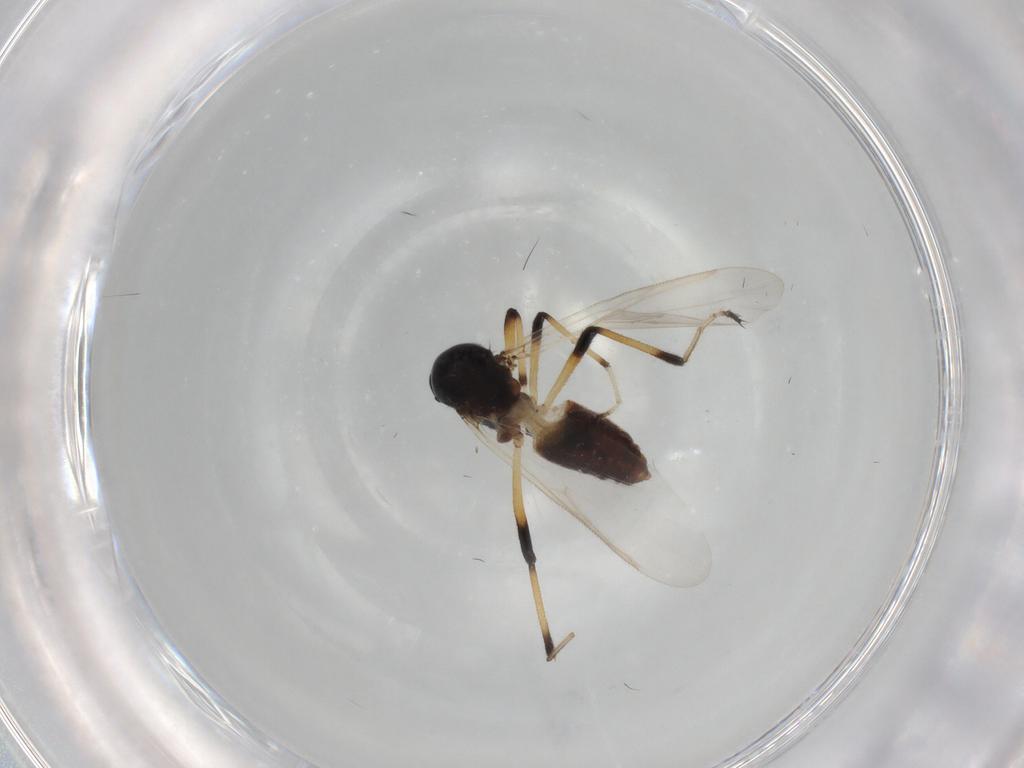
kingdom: Animalia
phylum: Arthropoda
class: Insecta
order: Diptera
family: Ceratopogonidae
